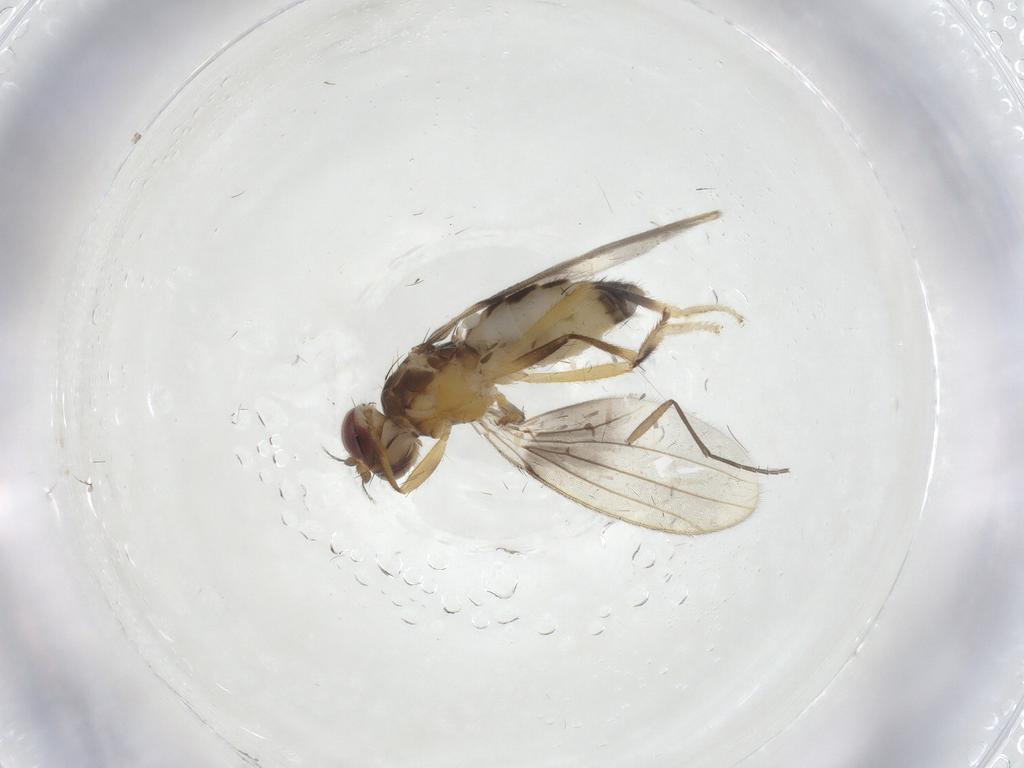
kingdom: Animalia
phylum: Arthropoda
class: Insecta
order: Diptera
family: Periscelididae
